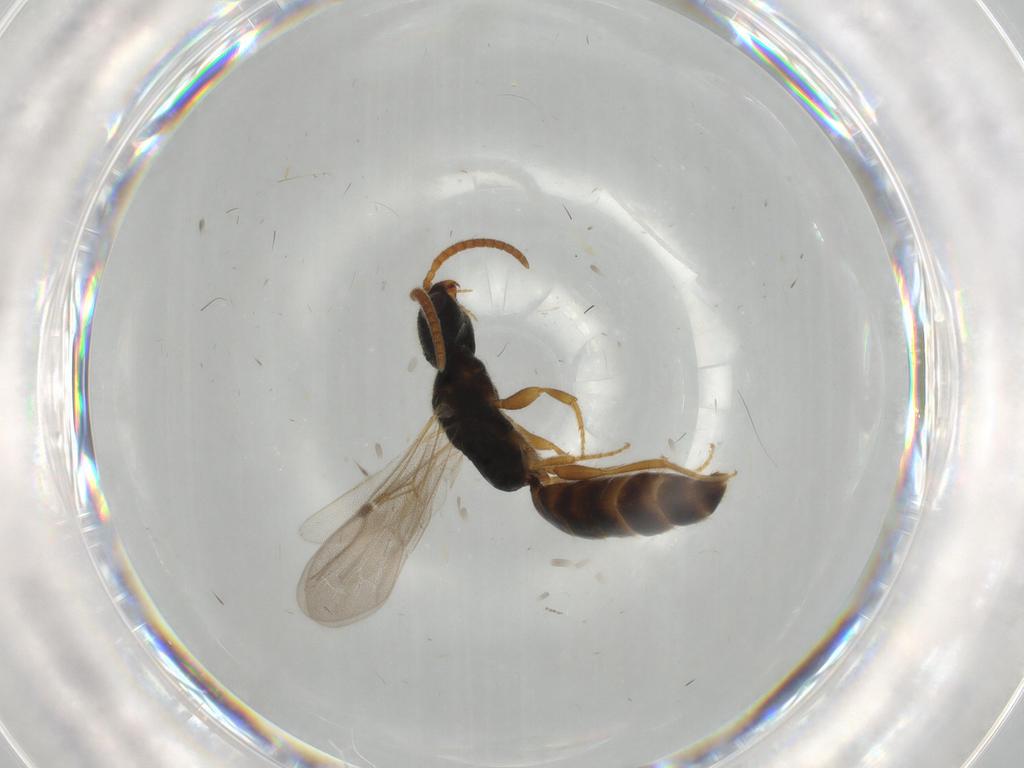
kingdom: Animalia
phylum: Arthropoda
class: Insecta
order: Hymenoptera
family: Bethylidae
